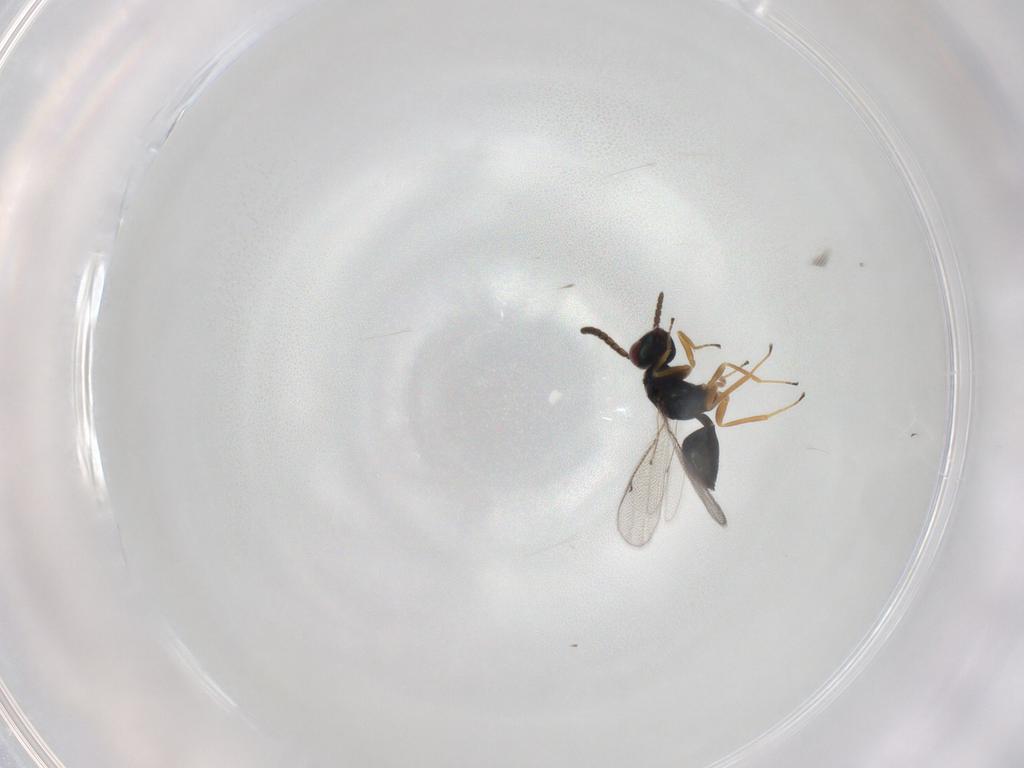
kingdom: Animalia
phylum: Arthropoda
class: Insecta
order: Hymenoptera
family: Tetracampidae
